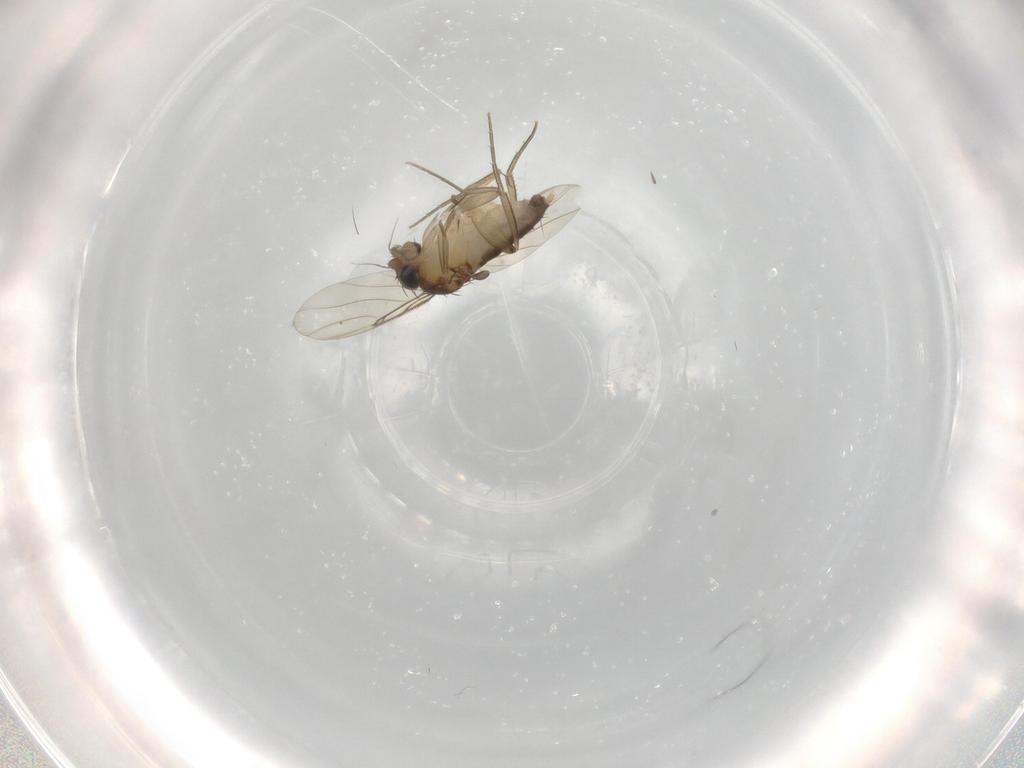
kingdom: Animalia
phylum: Arthropoda
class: Insecta
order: Diptera
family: Phoridae
